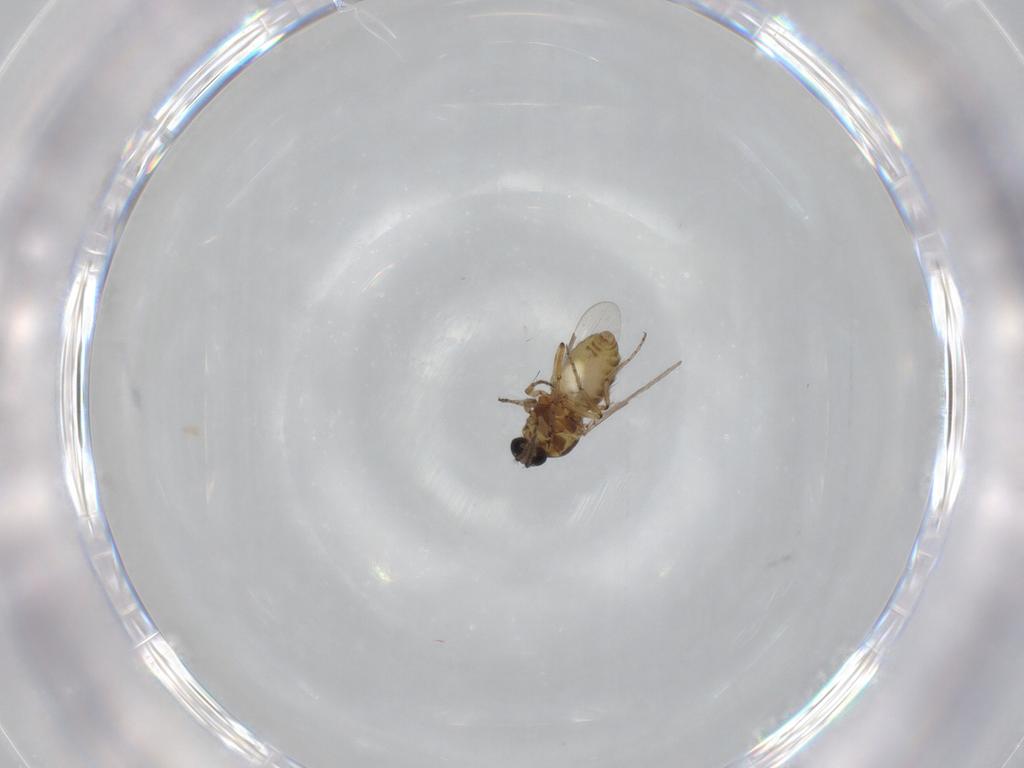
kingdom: Animalia
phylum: Arthropoda
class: Insecta
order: Diptera
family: Ceratopogonidae
